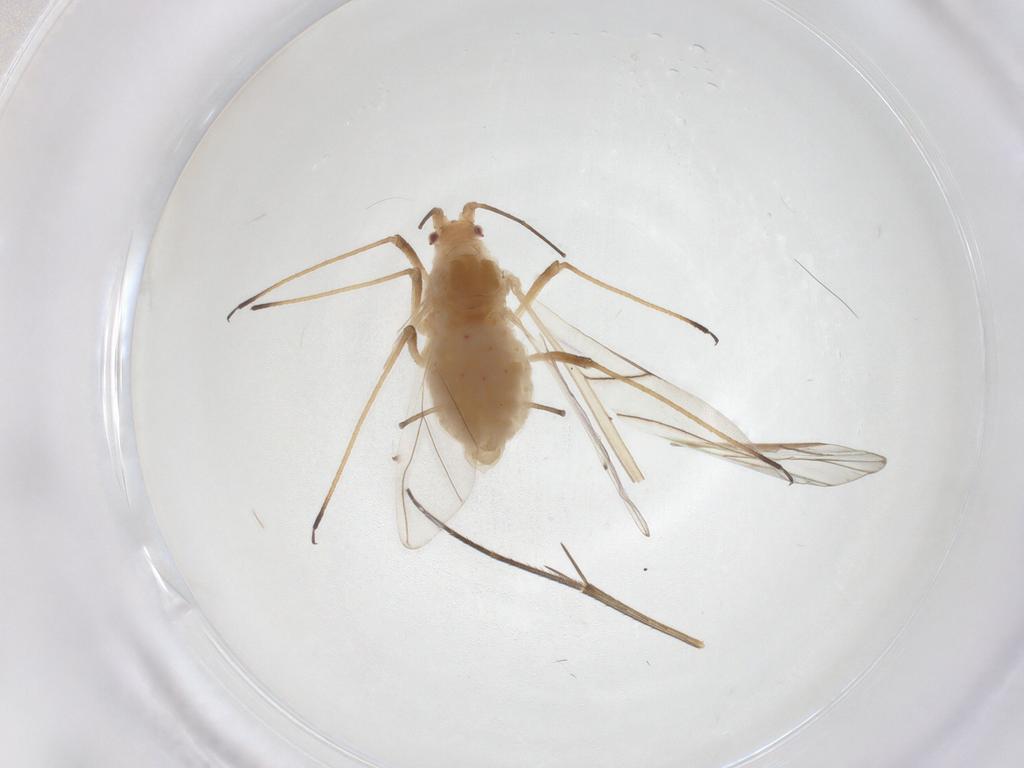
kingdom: Animalia
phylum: Arthropoda
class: Insecta
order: Hemiptera
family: Aphididae
